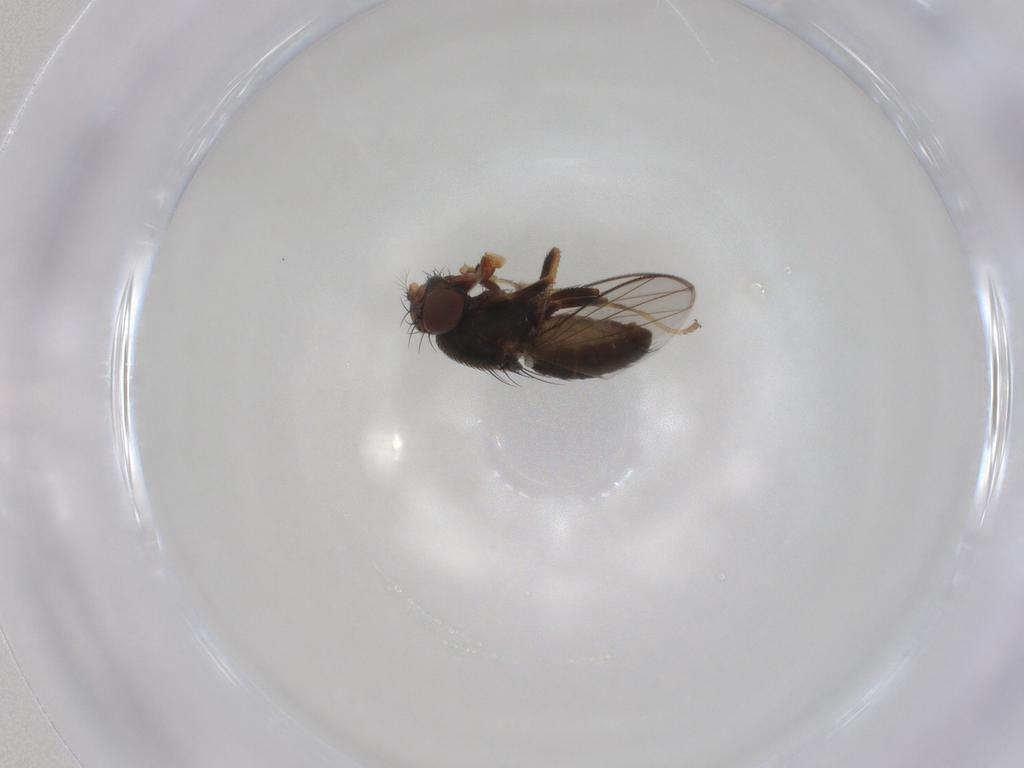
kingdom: Animalia
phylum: Arthropoda
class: Insecta
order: Diptera
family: Ephydridae
